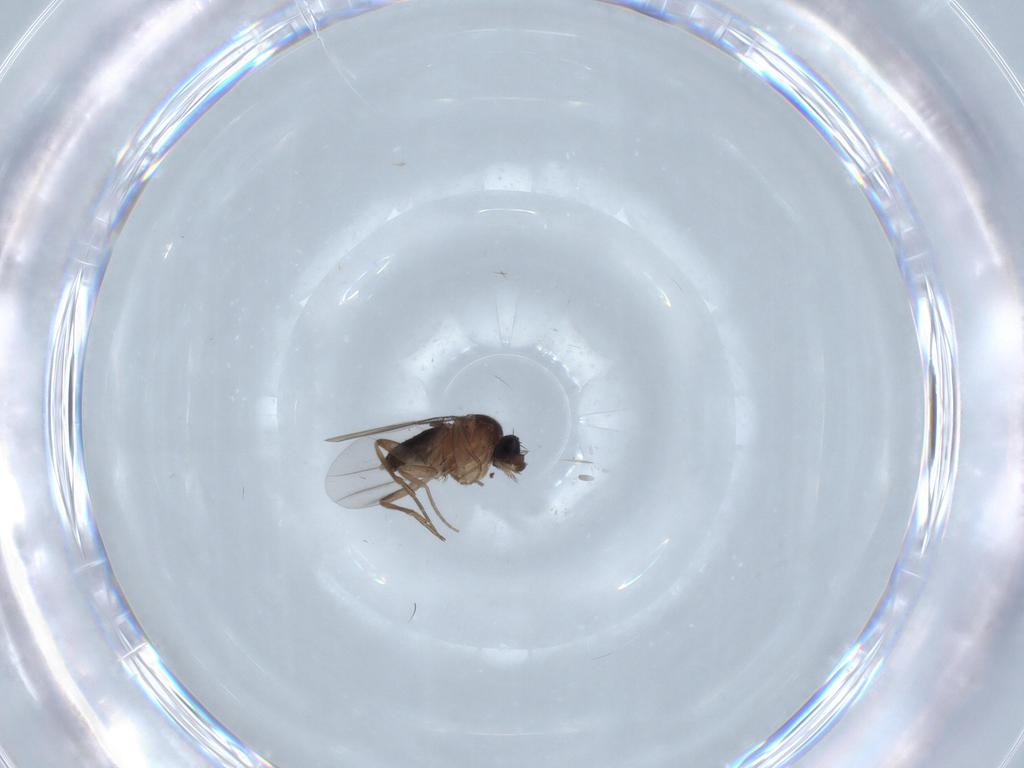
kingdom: Animalia
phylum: Arthropoda
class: Insecta
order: Diptera
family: Phoridae
